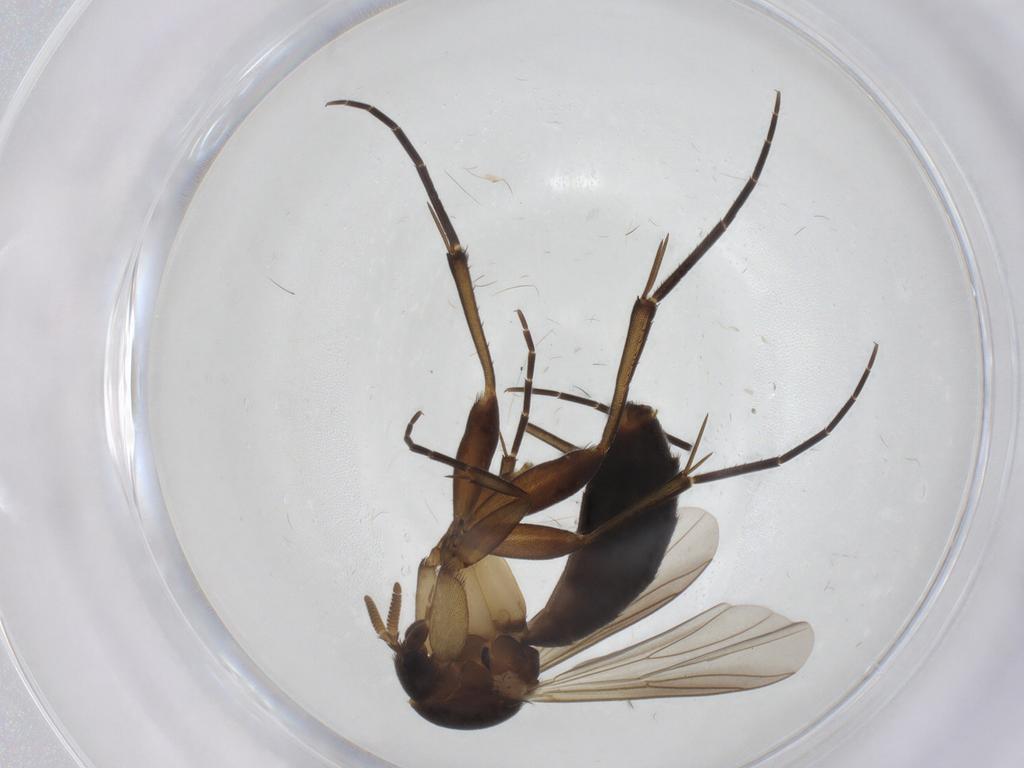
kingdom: Animalia
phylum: Arthropoda
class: Insecta
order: Diptera
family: Mycetophilidae
